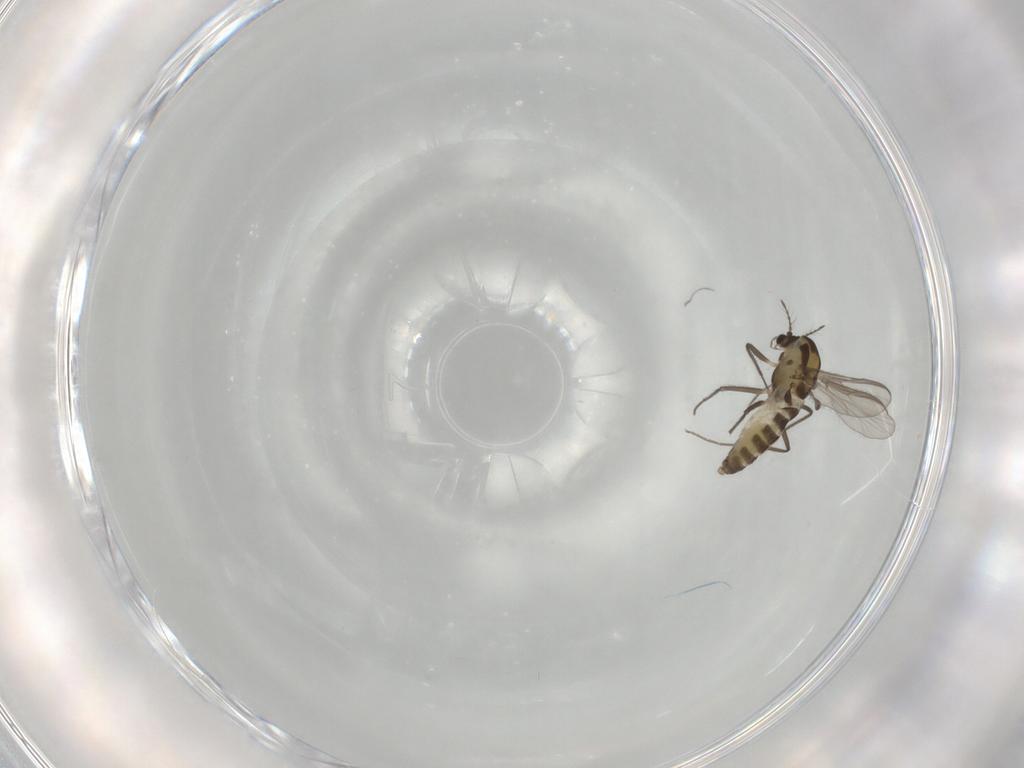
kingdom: Animalia
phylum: Arthropoda
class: Insecta
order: Diptera
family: Chironomidae
